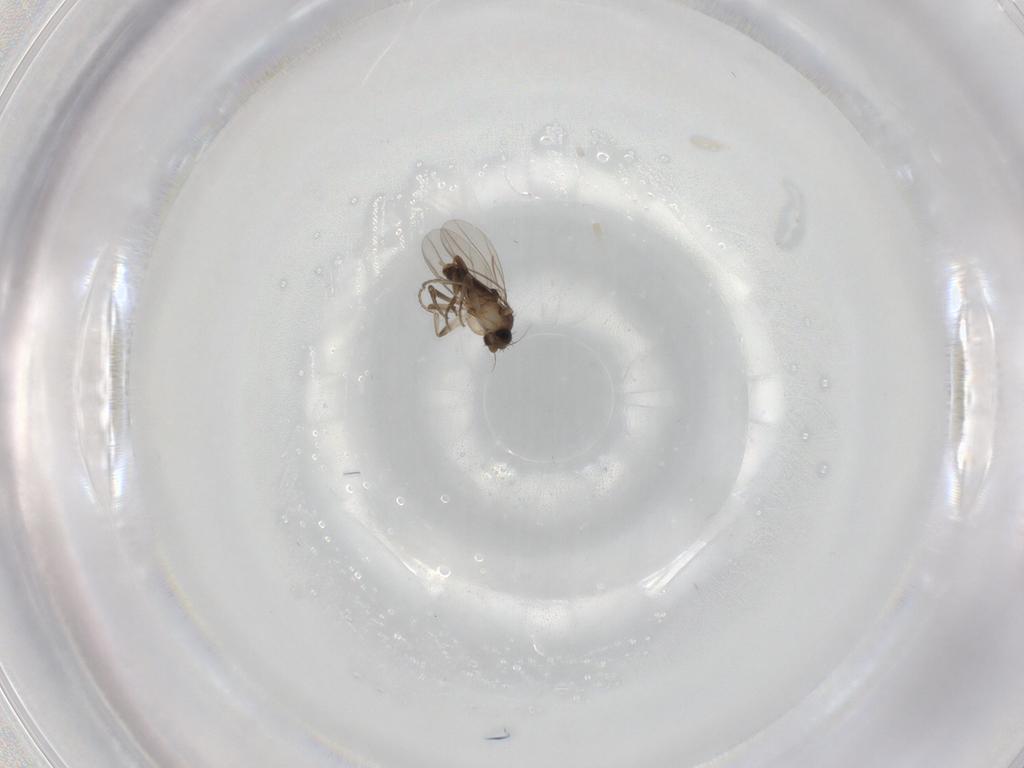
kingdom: Animalia
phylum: Arthropoda
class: Insecta
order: Diptera
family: Phoridae
